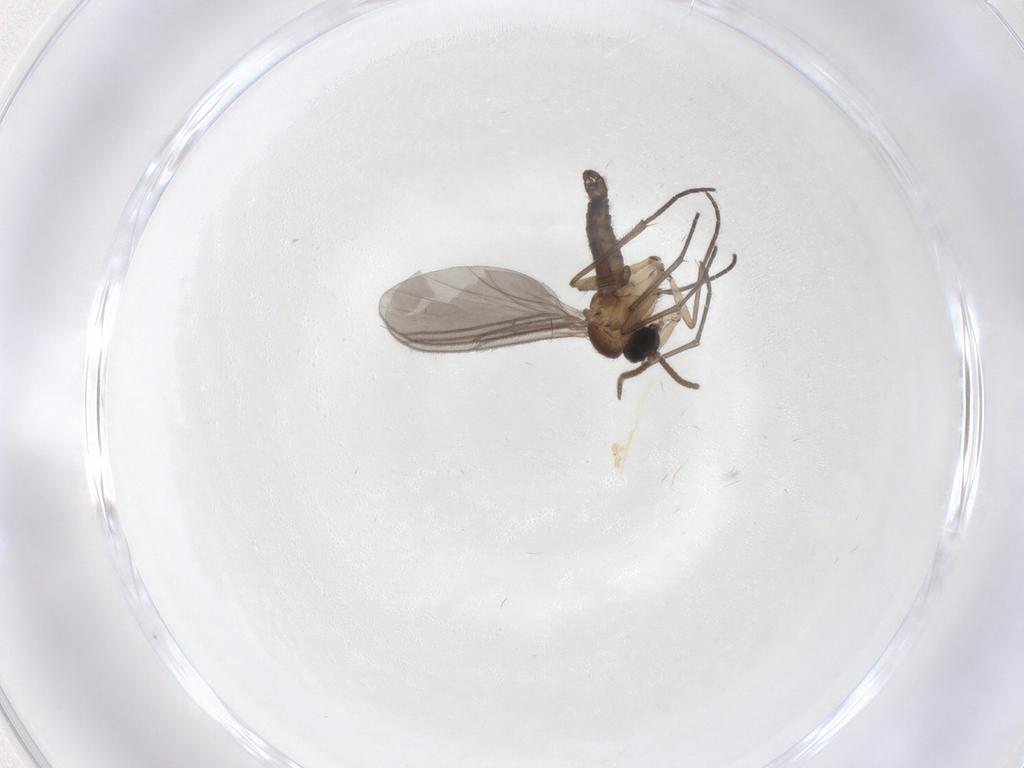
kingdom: Animalia
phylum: Arthropoda
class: Insecta
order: Diptera
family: Sciaridae
